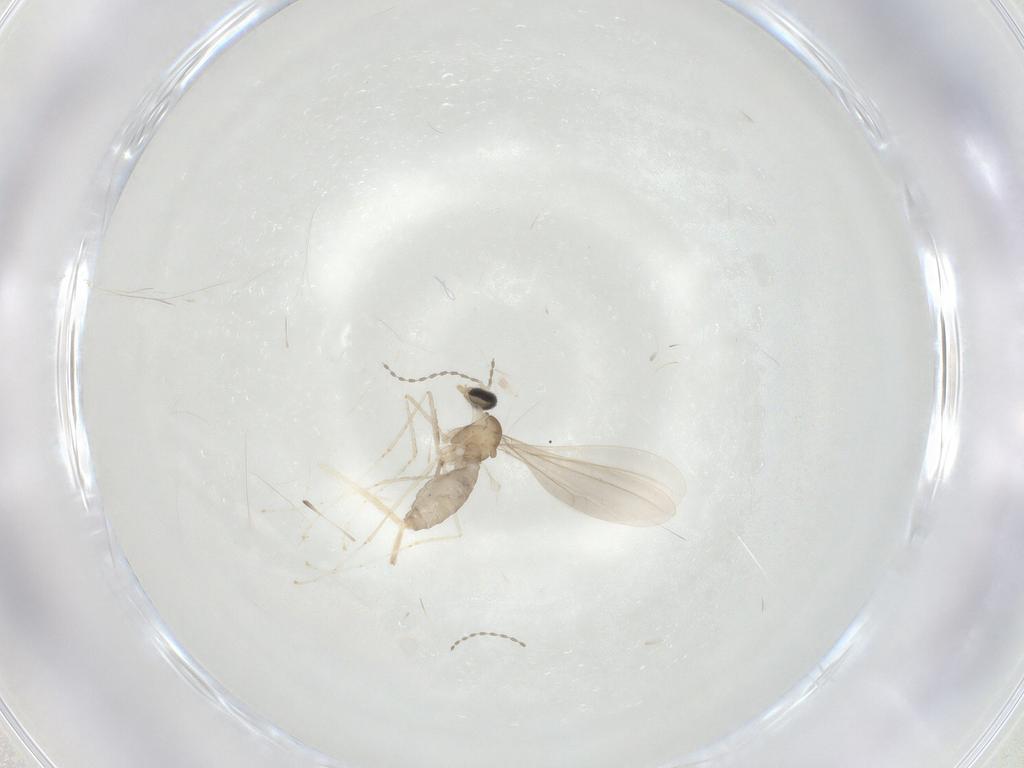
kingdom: Animalia
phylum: Arthropoda
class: Insecta
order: Diptera
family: Cecidomyiidae
